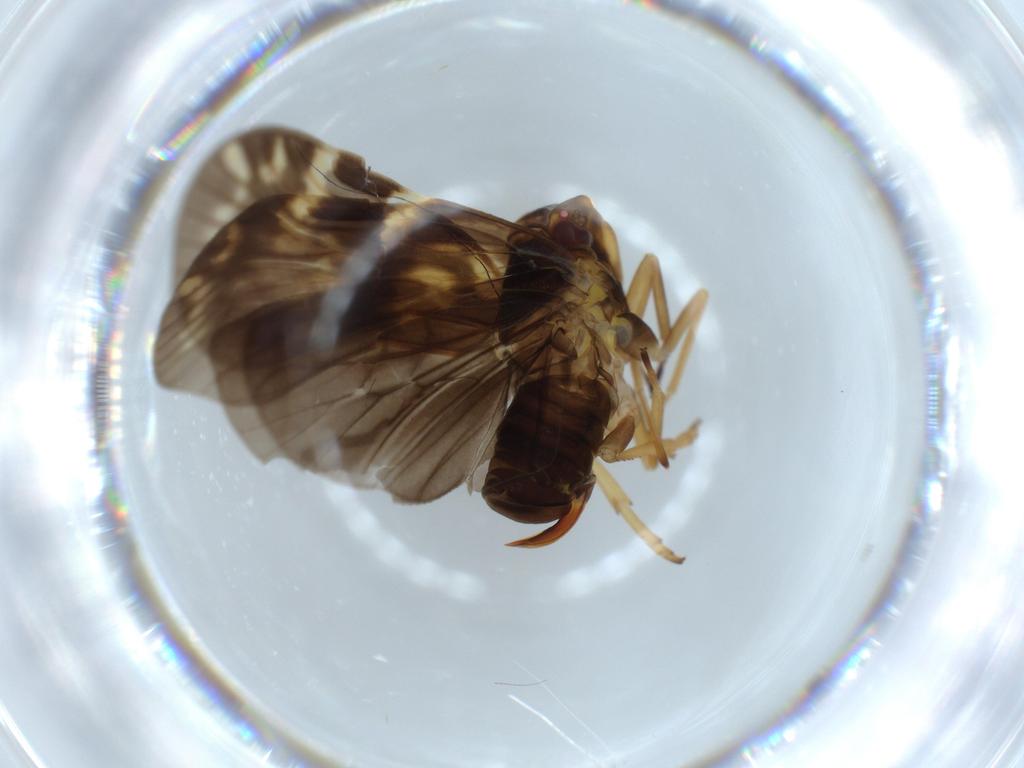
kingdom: Animalia
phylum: Arthropoda
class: Insecta
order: Hemiptera
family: Cixiidae
